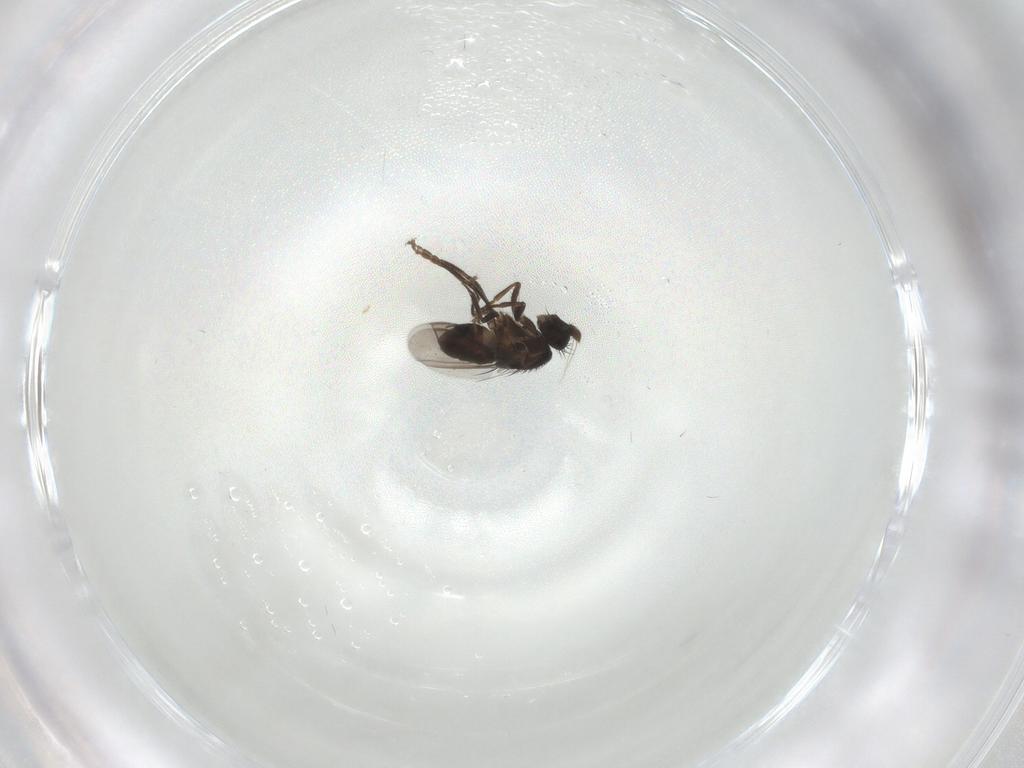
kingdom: Animalia
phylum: Arthropoda
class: Insecta
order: Diptera
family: Sphaeroceridae
